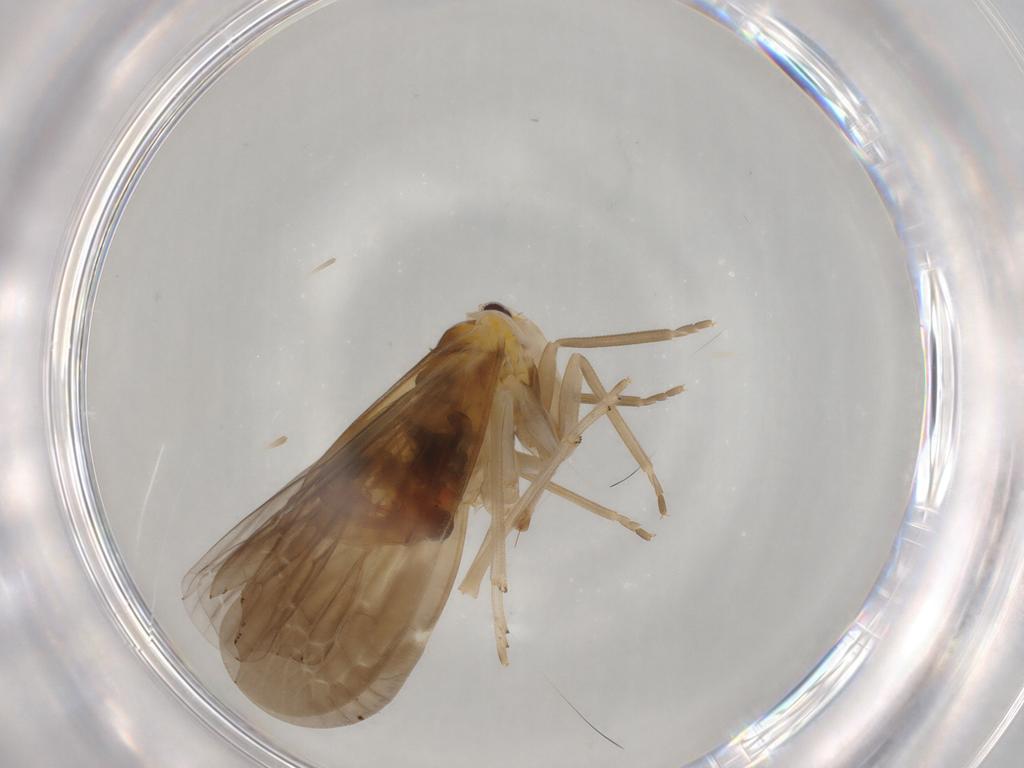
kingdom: Animalia
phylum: Arthropoda
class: Insecta
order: Hemiptera
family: Derbidae
